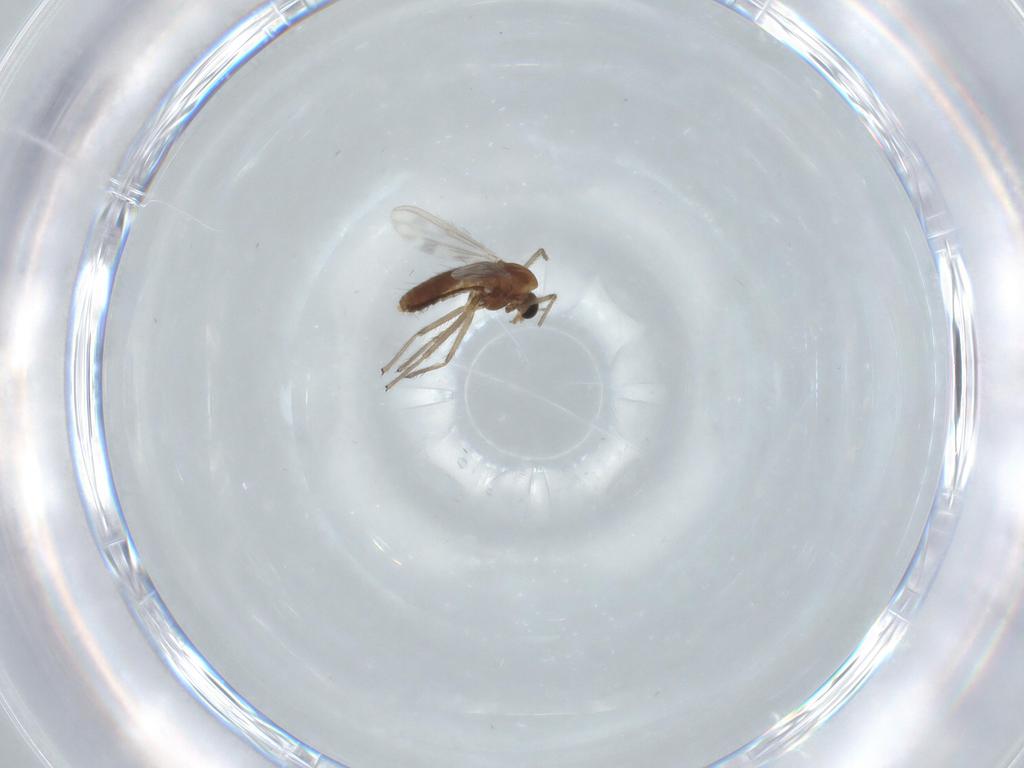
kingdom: Animalia
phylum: Arthropoda
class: Insecta
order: Diptera
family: Chironomidae
